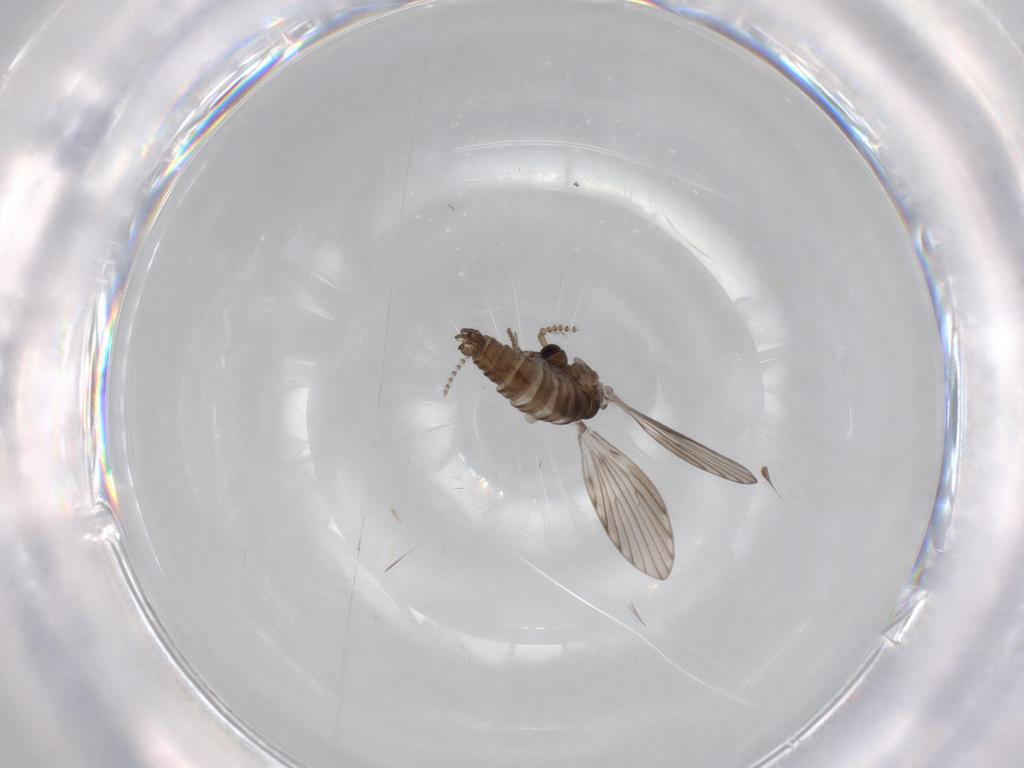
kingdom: Animalia
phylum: Arthropoda
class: Insecta
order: Diptera
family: Psychodidae
